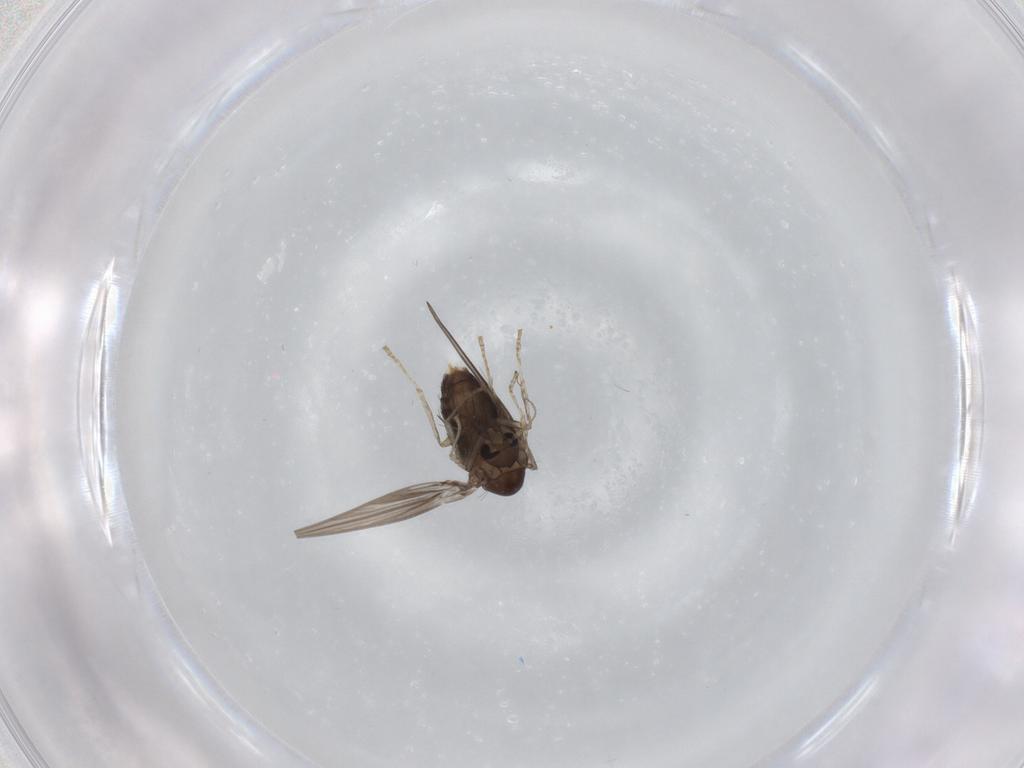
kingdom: Animalia
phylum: Arthropoda
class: Insecta
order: Diptera
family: Psychodidae
